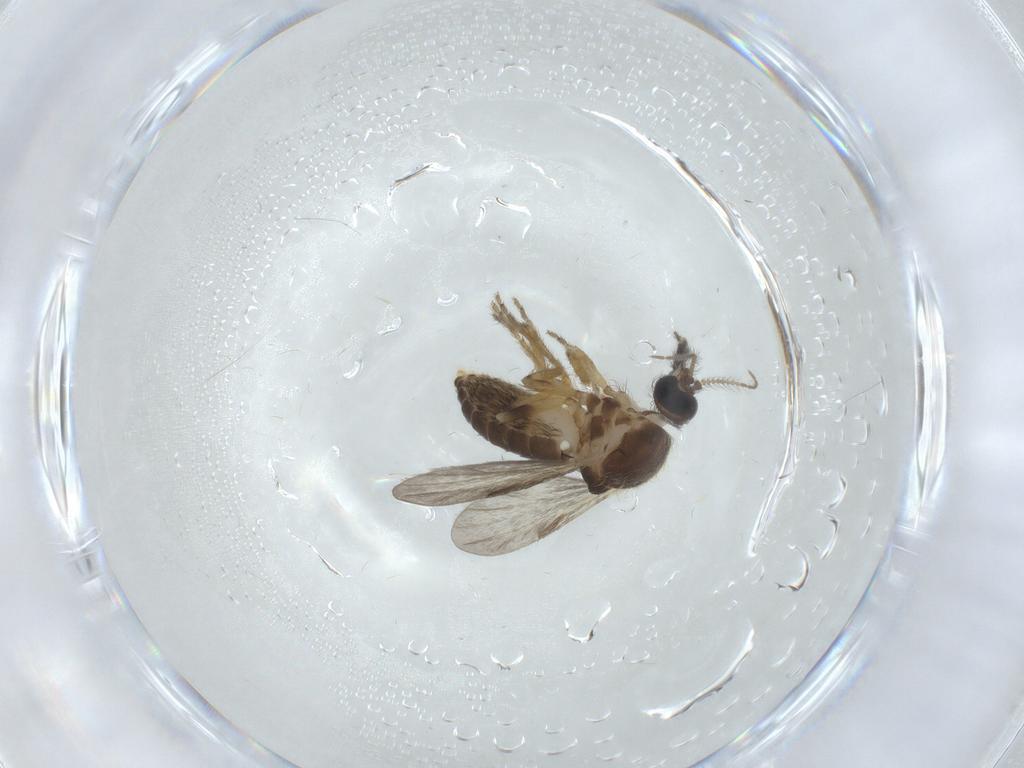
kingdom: Animalia
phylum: Arthropoda
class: Insecta
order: Diptera
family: Ceratopogonidae
